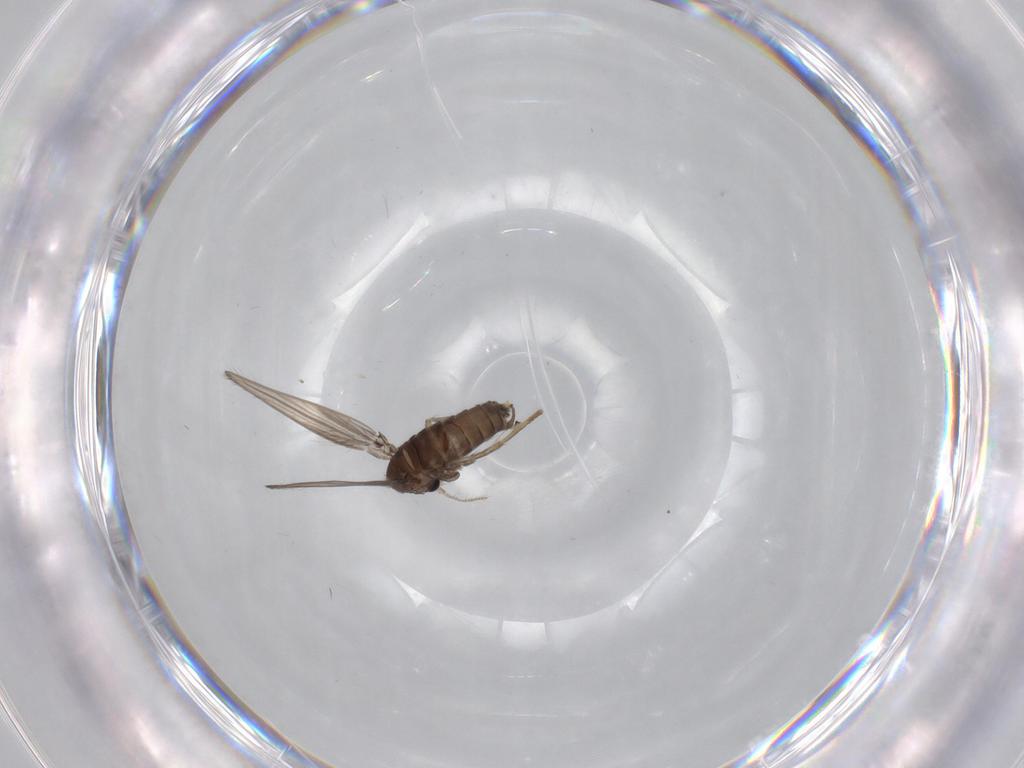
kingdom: Animalia
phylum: Arthropoda
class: Insecta
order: Diptera
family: Psychodidae
